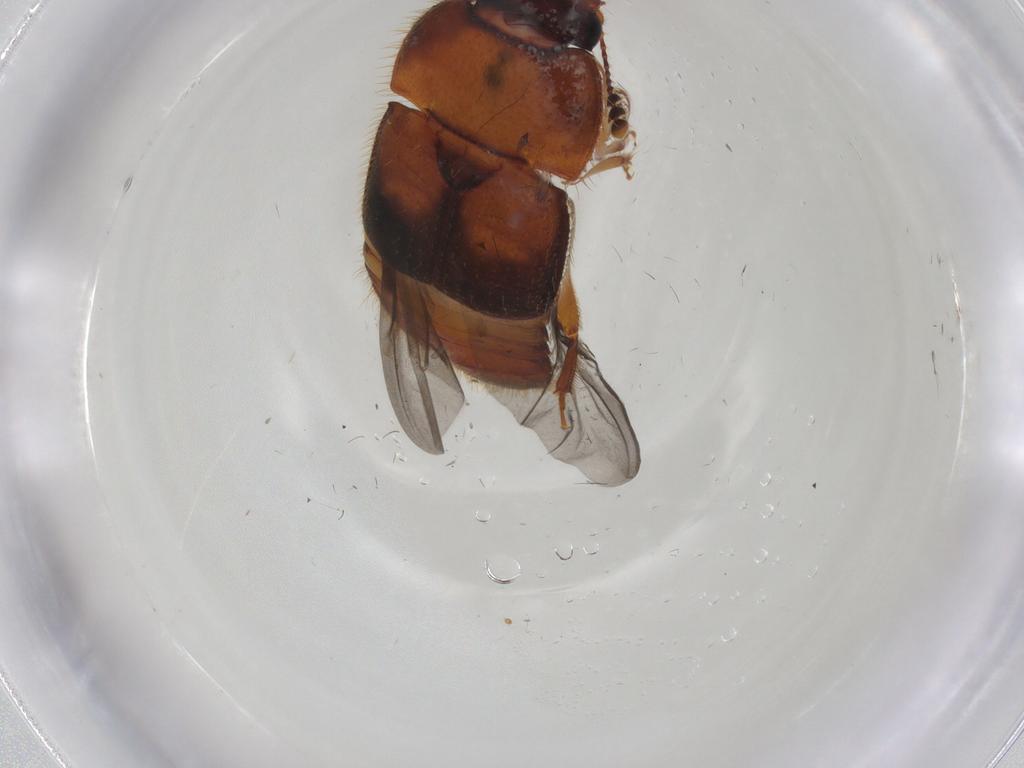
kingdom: Animalia
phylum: Arthropoda
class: Insecta
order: Coleoptera
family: Nitidulidae
